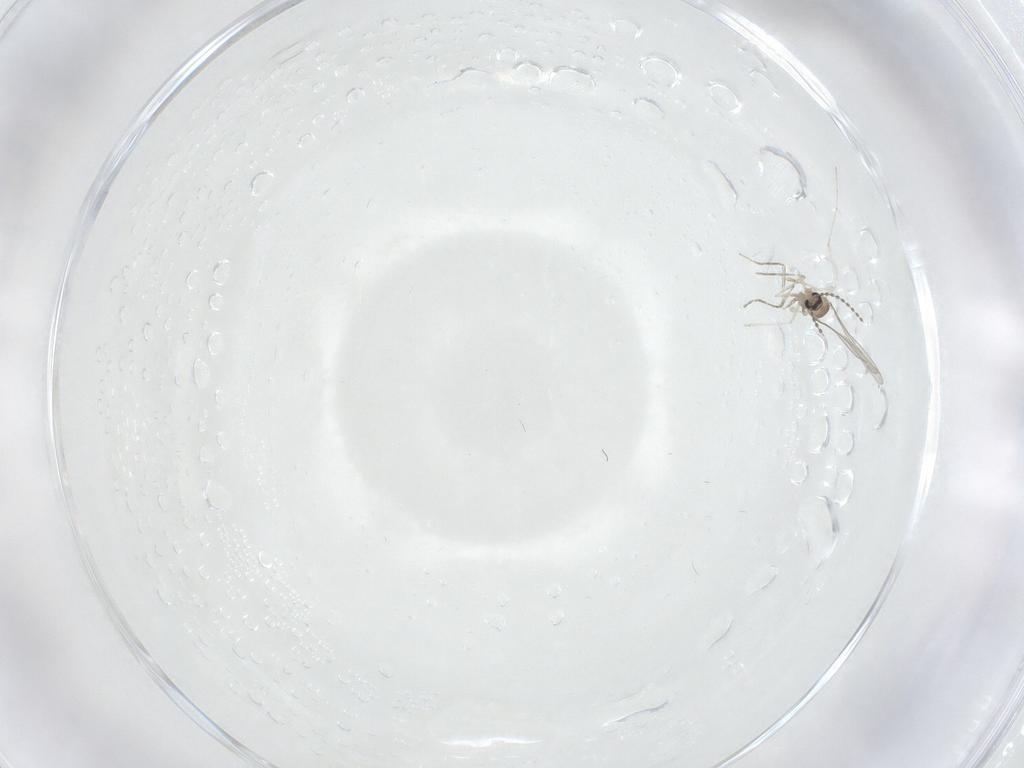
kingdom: Animalia
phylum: Arthropoda
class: Insecta
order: Diptera
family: Cecidomyiidae
